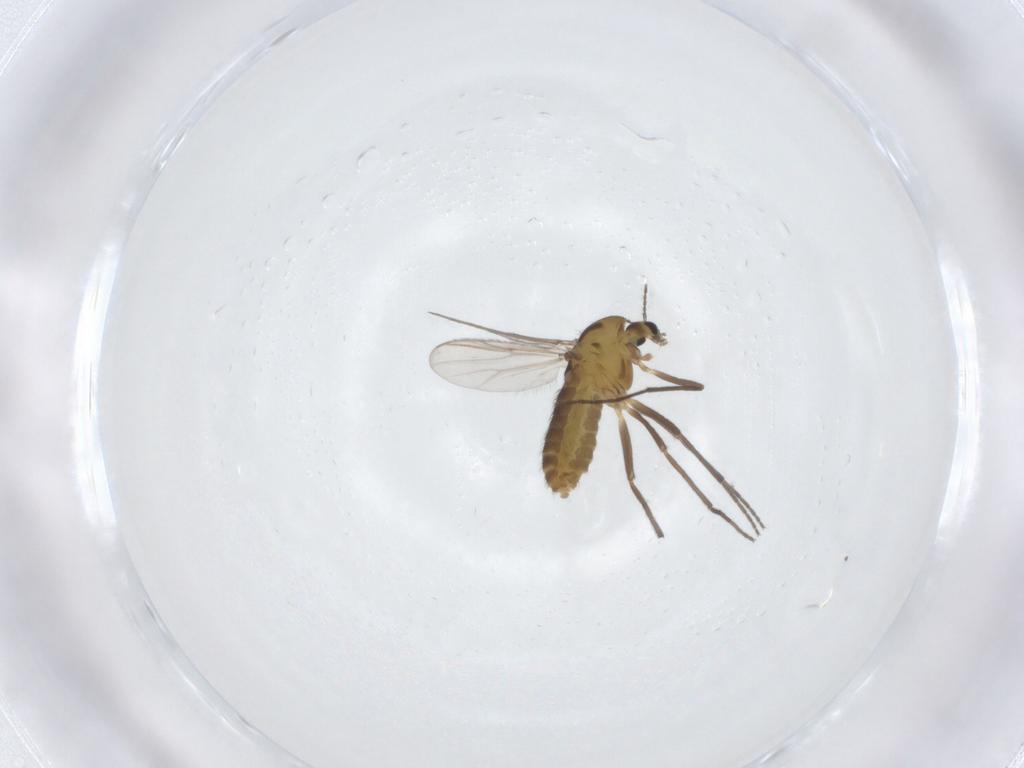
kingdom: Animalia
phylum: Arthropoda
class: Insecta
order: Diptera
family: Chironomidae
